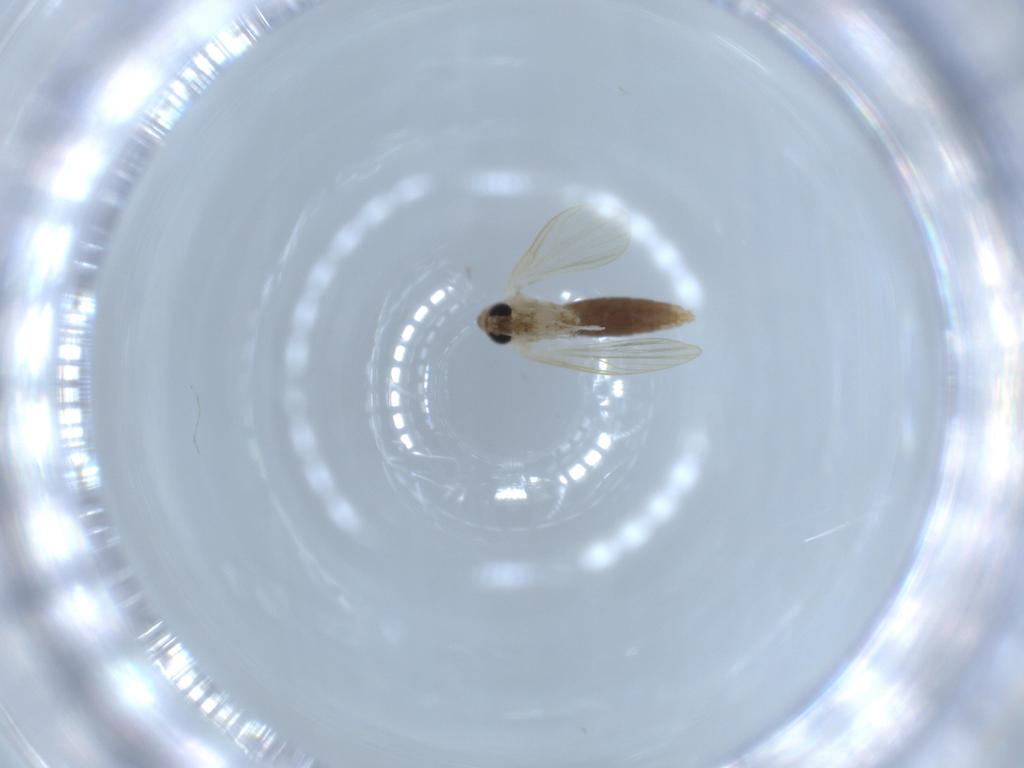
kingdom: Animalia
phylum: Arthropoda
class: Insecta
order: Diptera
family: Psychodidae
